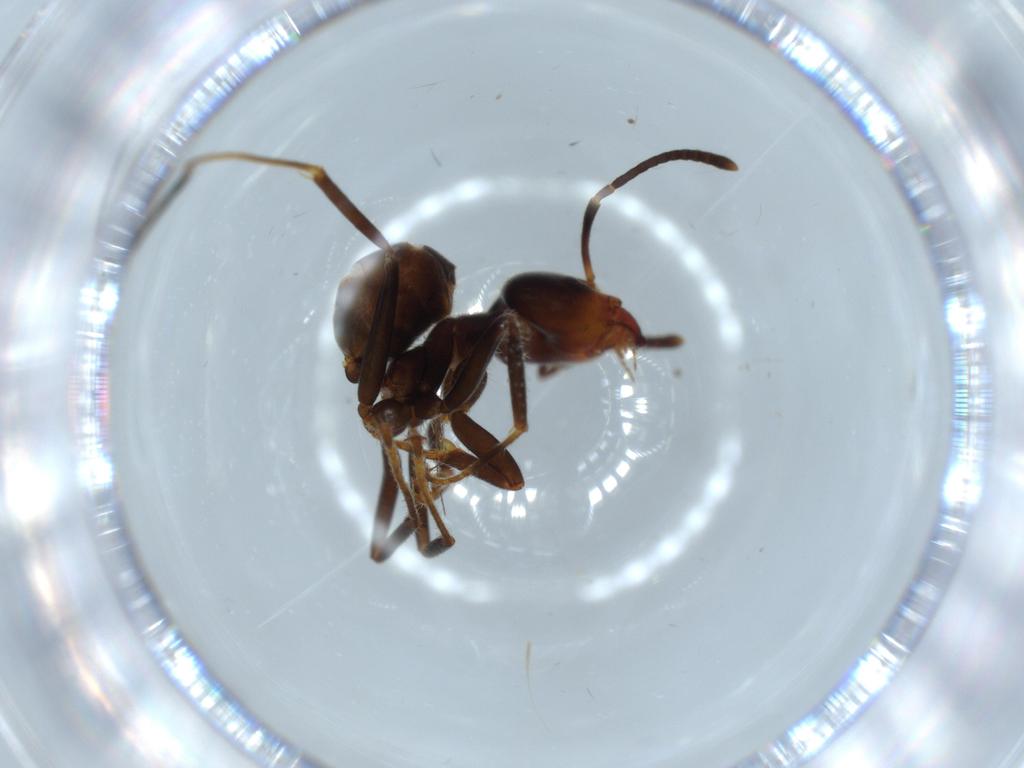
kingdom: Animalia
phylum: Arthropoda
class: Insecta
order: Hymenoptera
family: Formicidae
